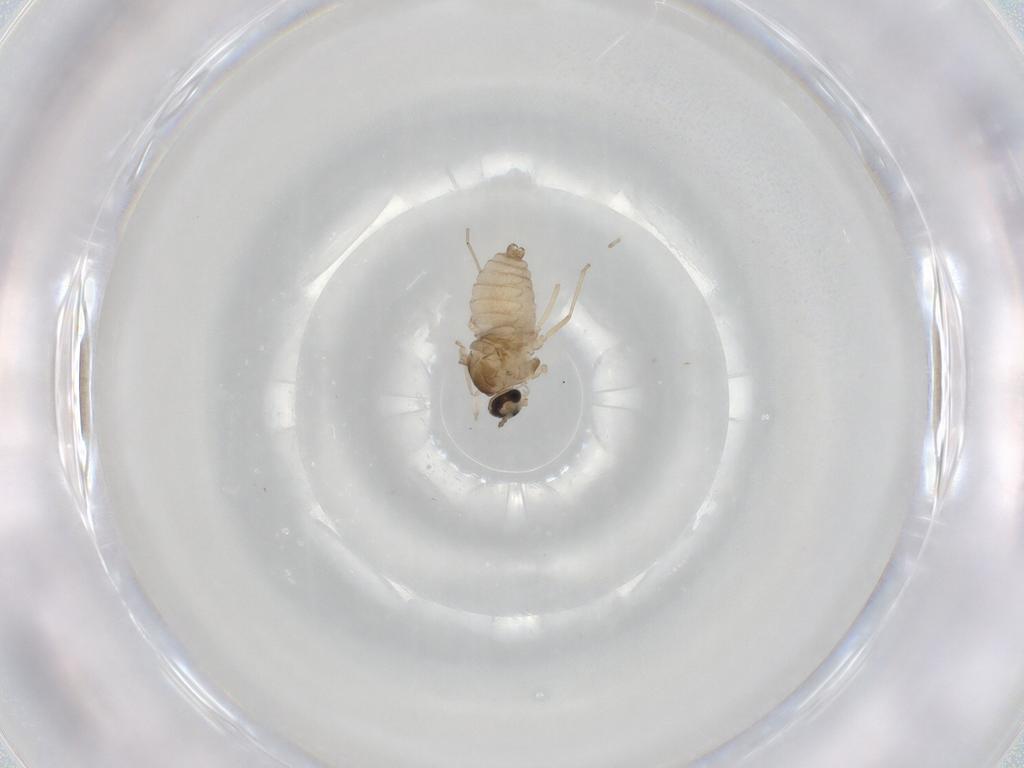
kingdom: Animalia
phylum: Arthropoda
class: Insecta
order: Diptera
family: Cecidomyiidae
